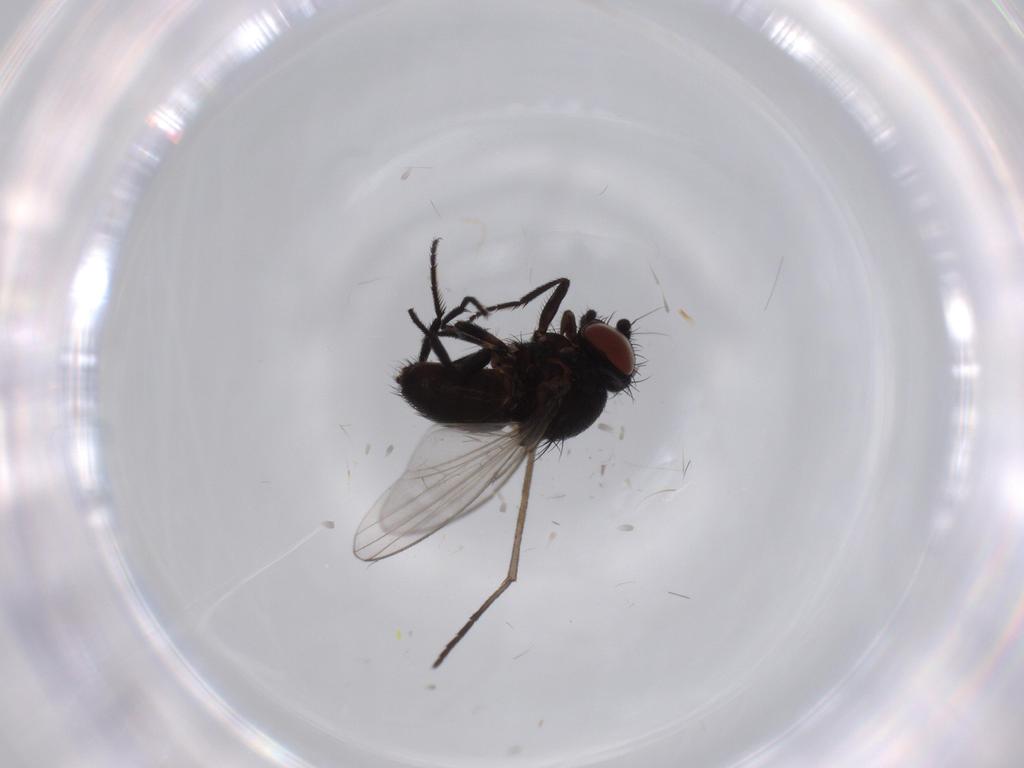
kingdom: Animalia
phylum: Arthropoda
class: Insecta
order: Diptera
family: Milichiidae
